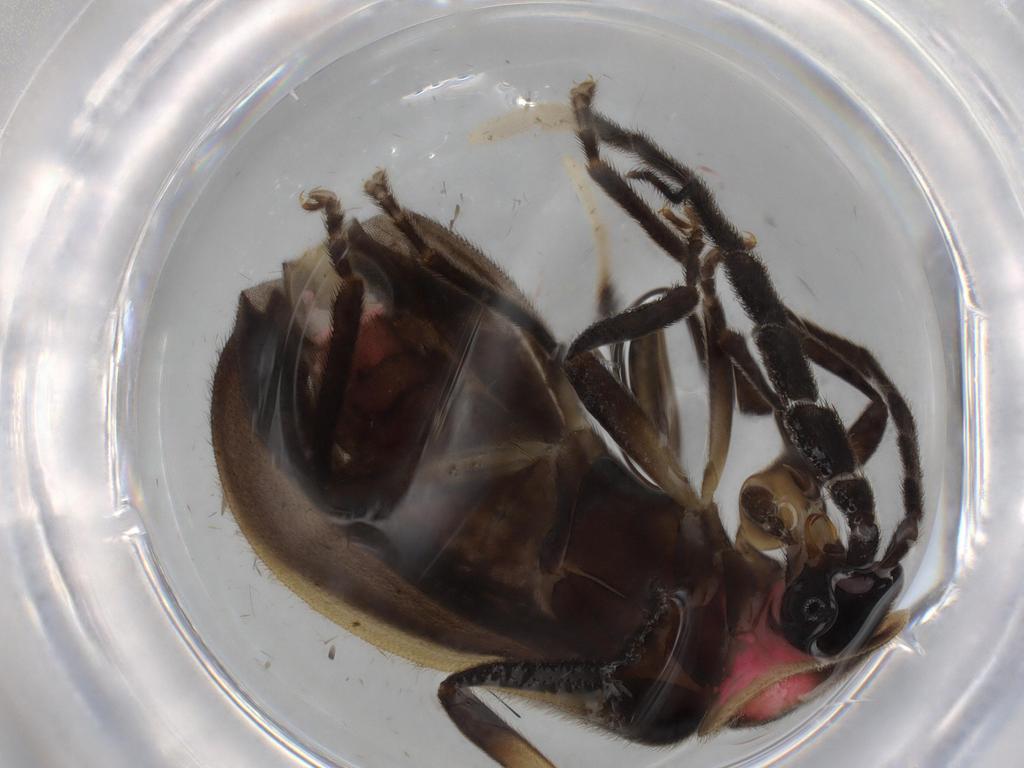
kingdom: Animalia
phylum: Arthropoda
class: Insecta
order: Coleoptera
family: Lampyridae
